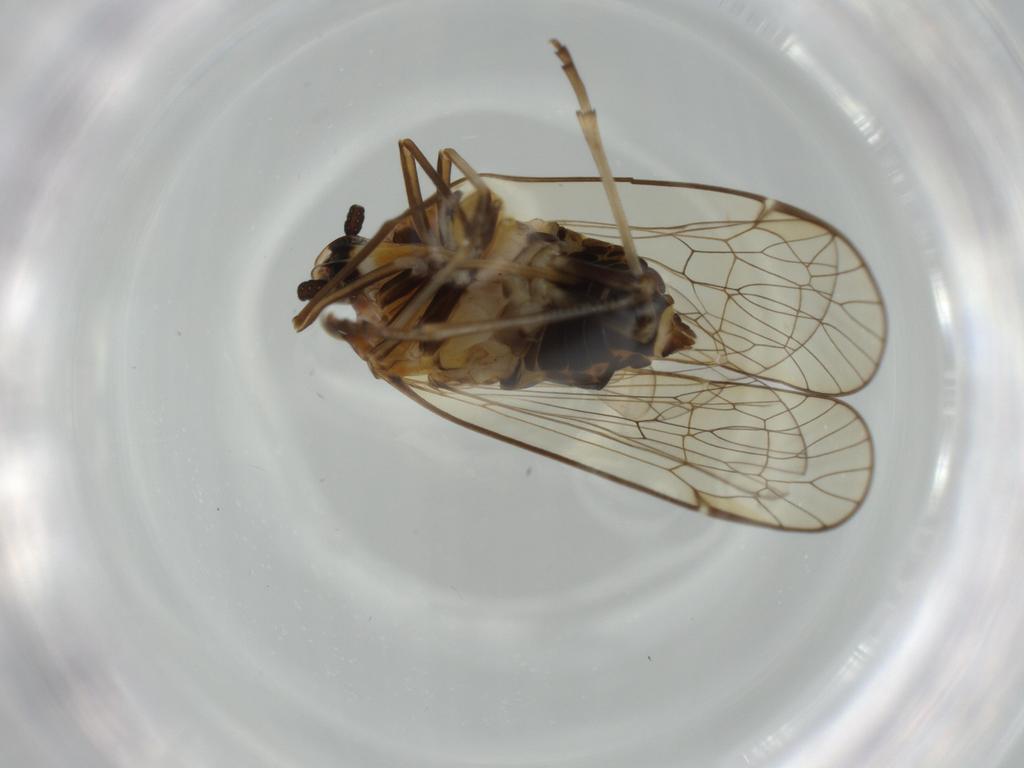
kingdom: Animalia
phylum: Arthropoda
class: Insecta
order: Hemiptera
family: Kinnaridae
